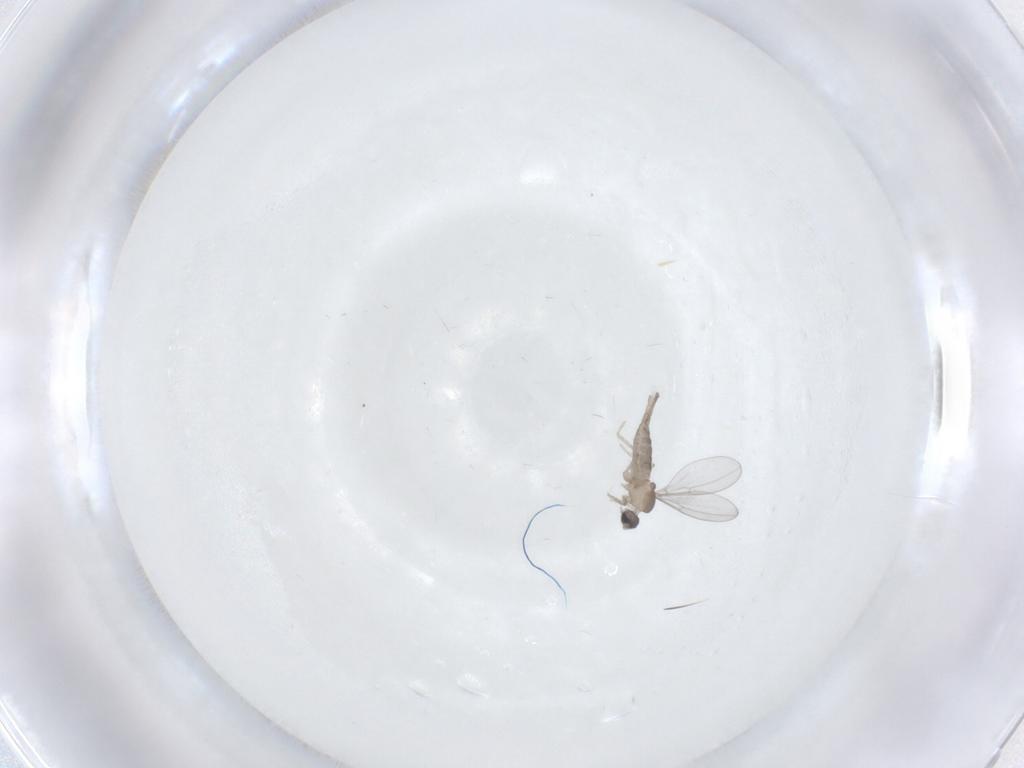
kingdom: Animalia
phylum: Arthropoda
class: Insecta
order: Diptera
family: Cecidomyiidae
